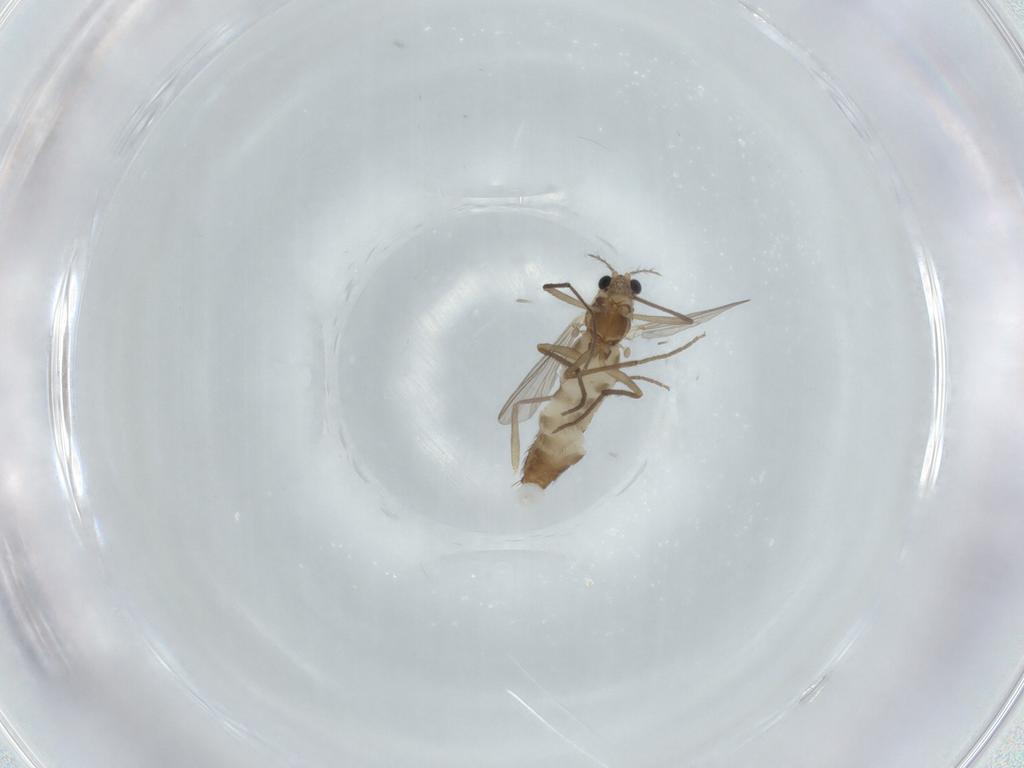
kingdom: Animalia
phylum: Arthropoda
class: Insecta
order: Diptera
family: Chironomidae
